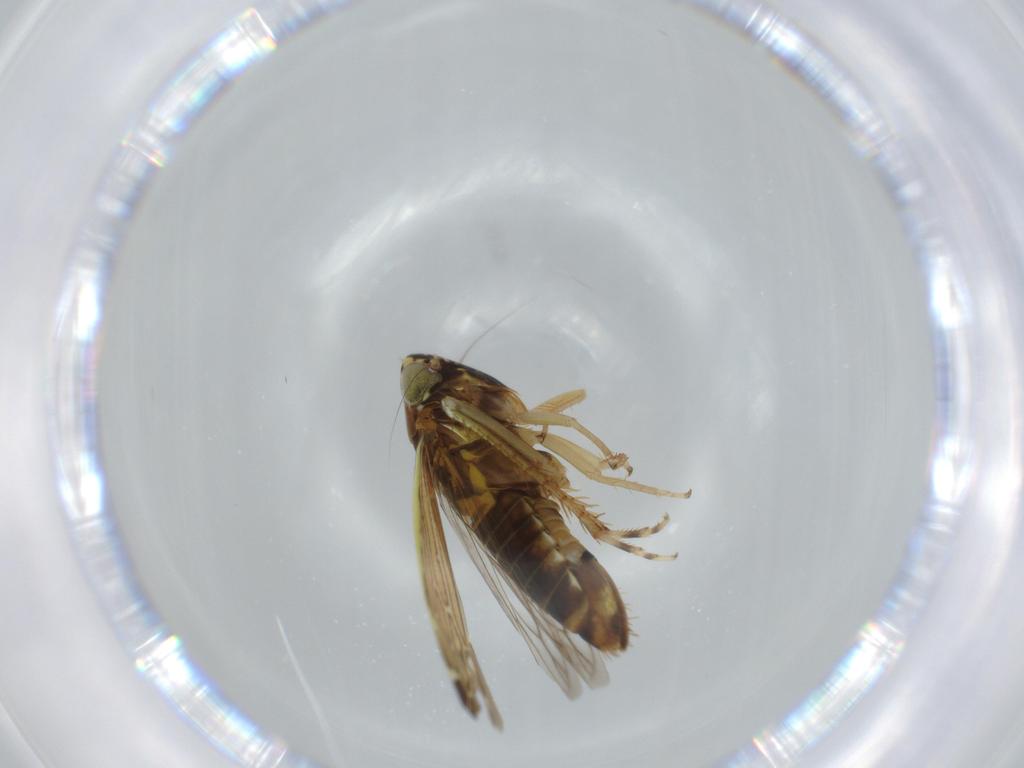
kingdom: Animalia
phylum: Arthropoda
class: Insecta
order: Hemiptera
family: Cicadellidae
